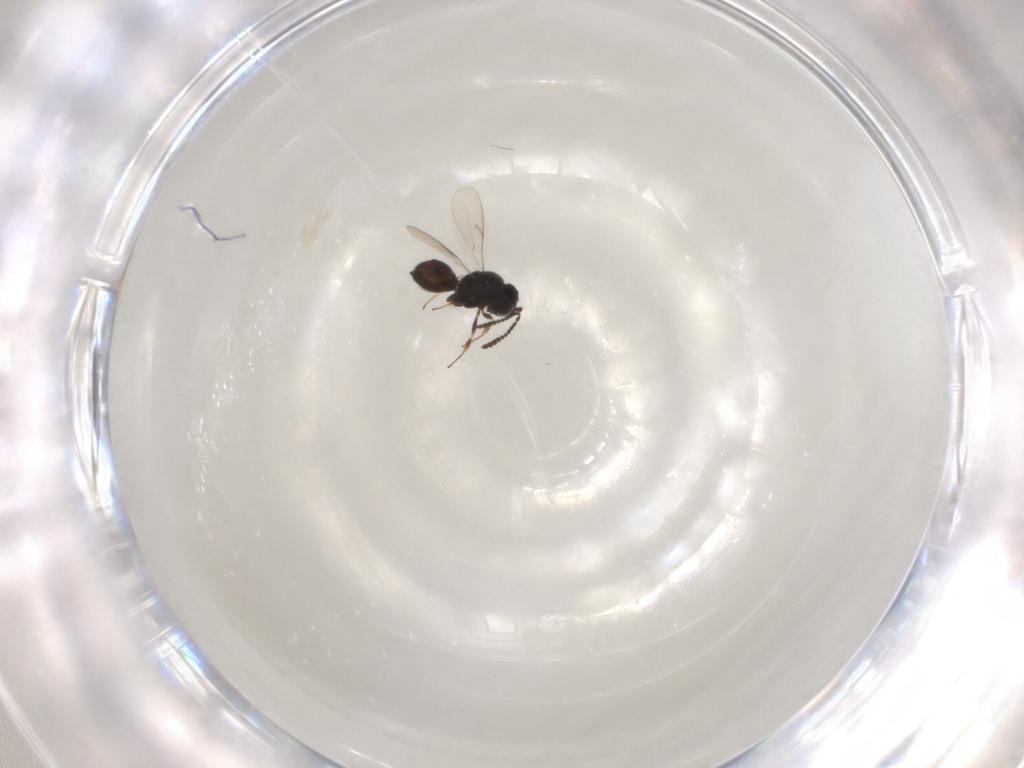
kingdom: Animalia
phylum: Arthropoda
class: Insecta
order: Hymenoptera
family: Scelionidae
